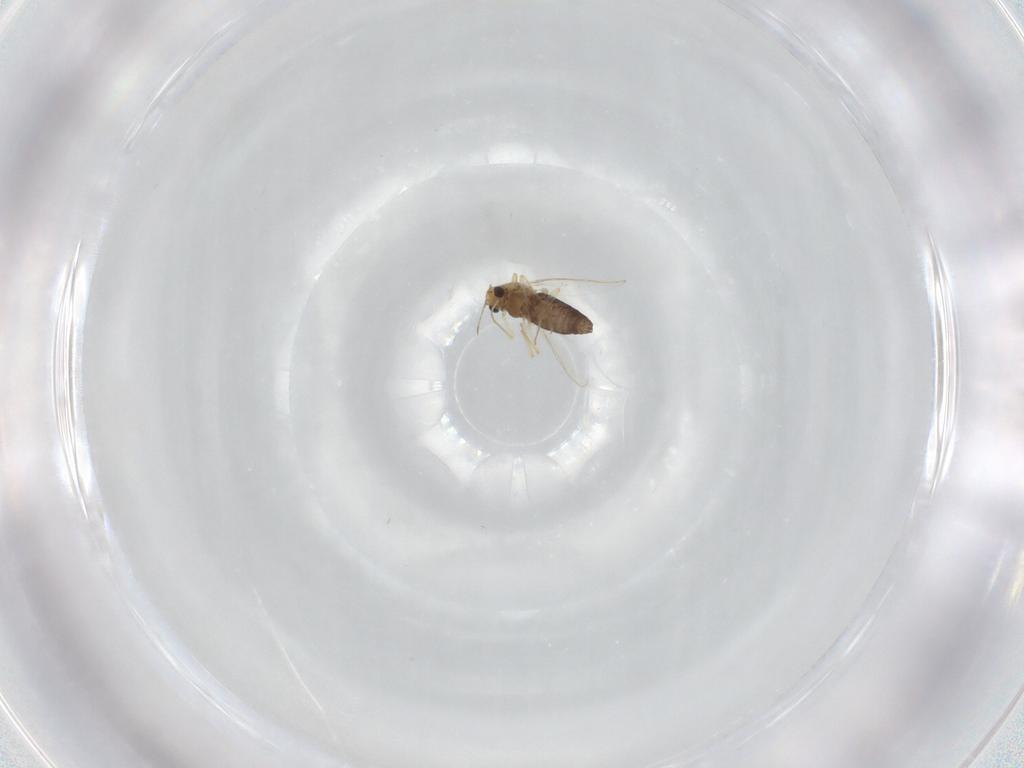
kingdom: Animalia
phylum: Arthropoda
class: Insecta
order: Diptera
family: Chironomidae
